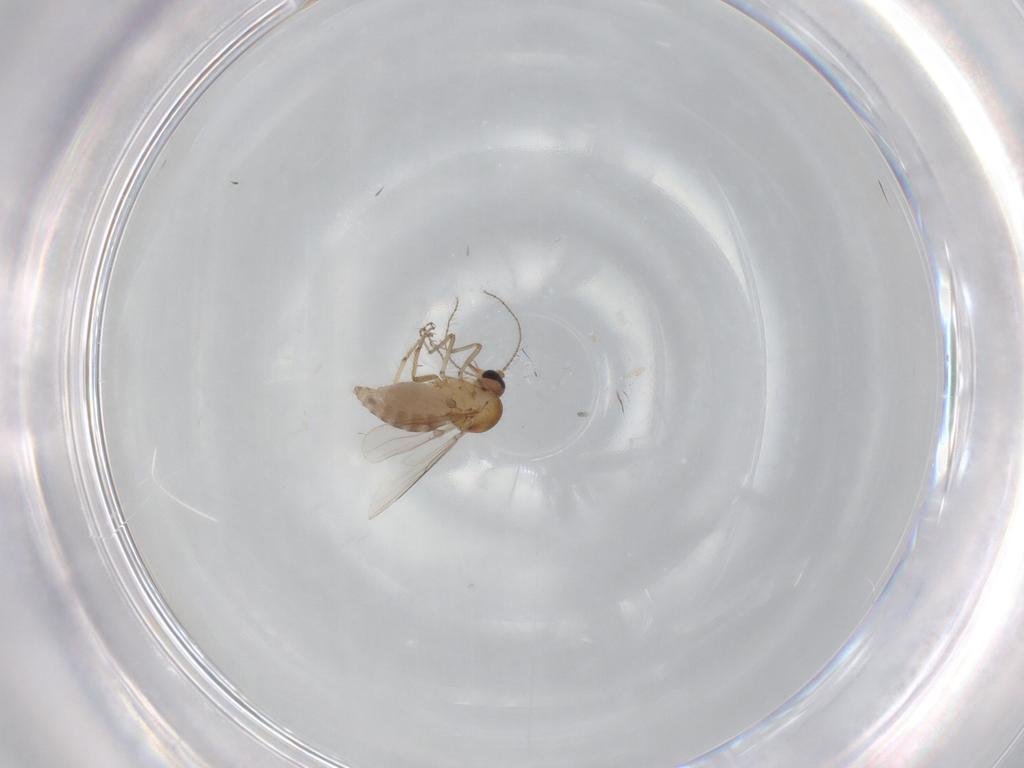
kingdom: Animalia
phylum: Arthropoda
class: Insecta
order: Diptera
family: Ceratopogonidae
